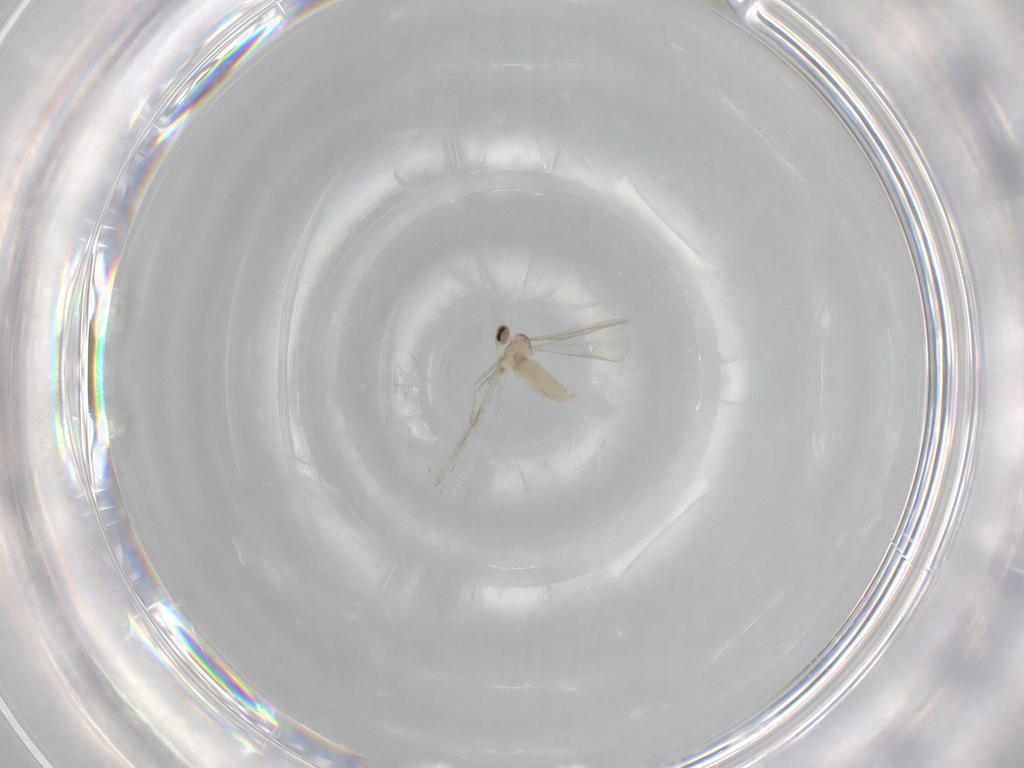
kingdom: Animalia
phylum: Arthropoda
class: Insecta
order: Diptera
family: Cecidomyiidae
